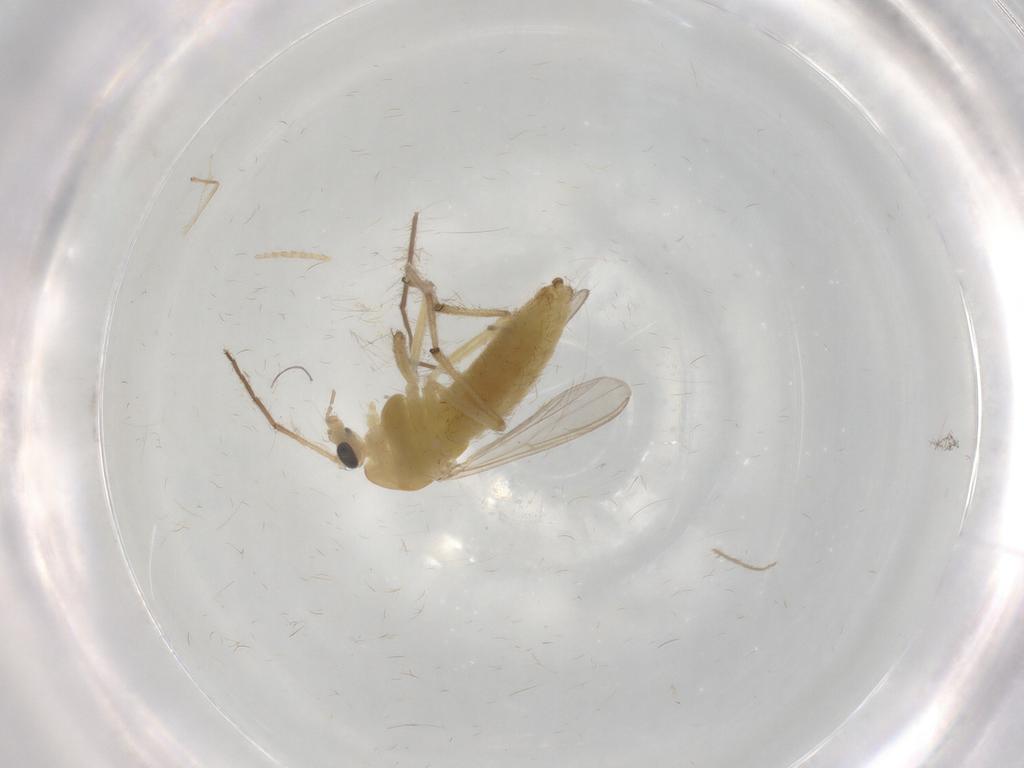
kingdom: Animalia
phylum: Arthropoda
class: Insecta
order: Diptera
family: Chironomidae
